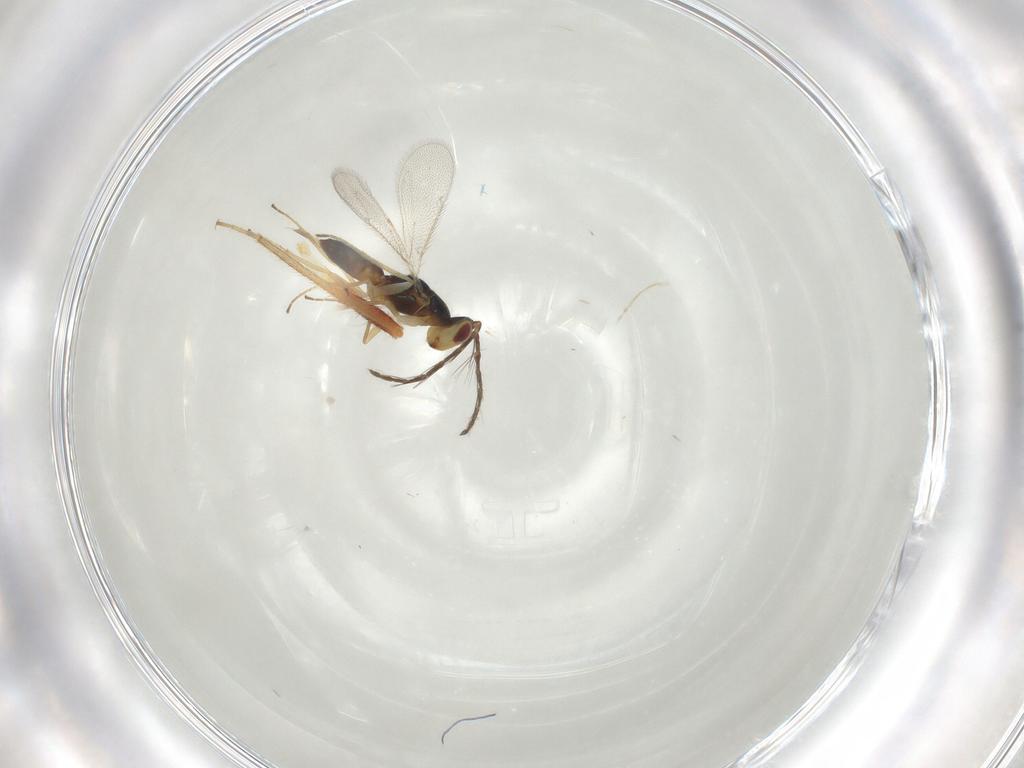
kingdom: Animalia
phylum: Arthropoda
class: Insecta
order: Hymenoptera
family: Eulophidae
